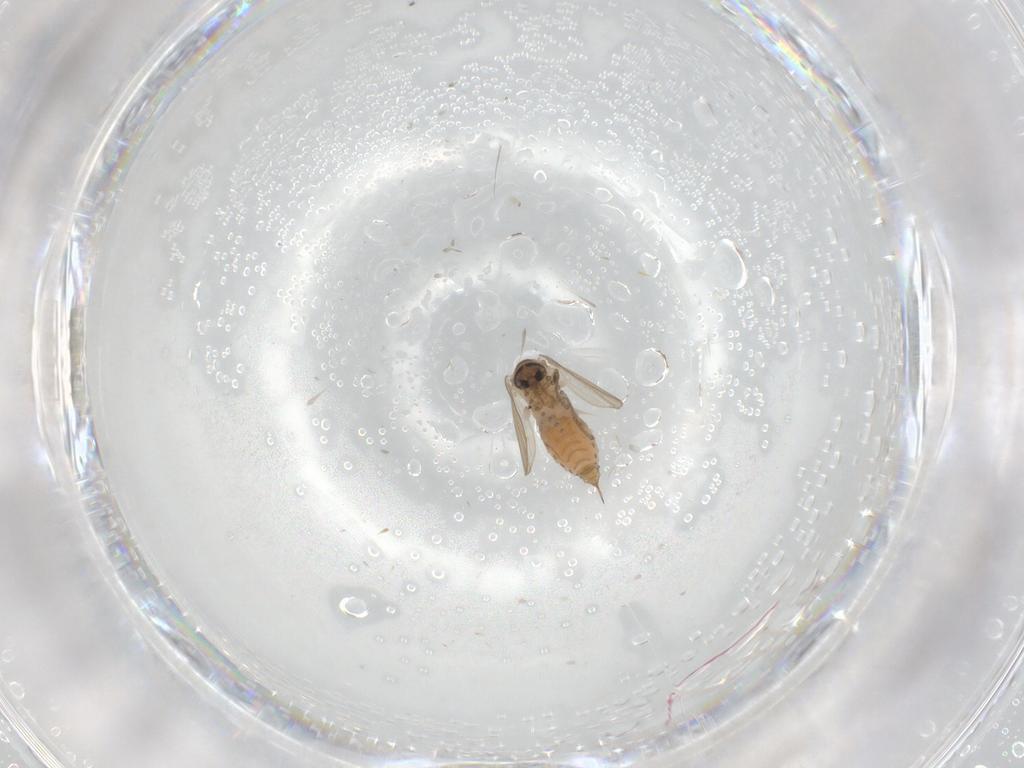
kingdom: Animalia
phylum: Arthropoda
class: Insecta
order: Diptera
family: Psychodidae
